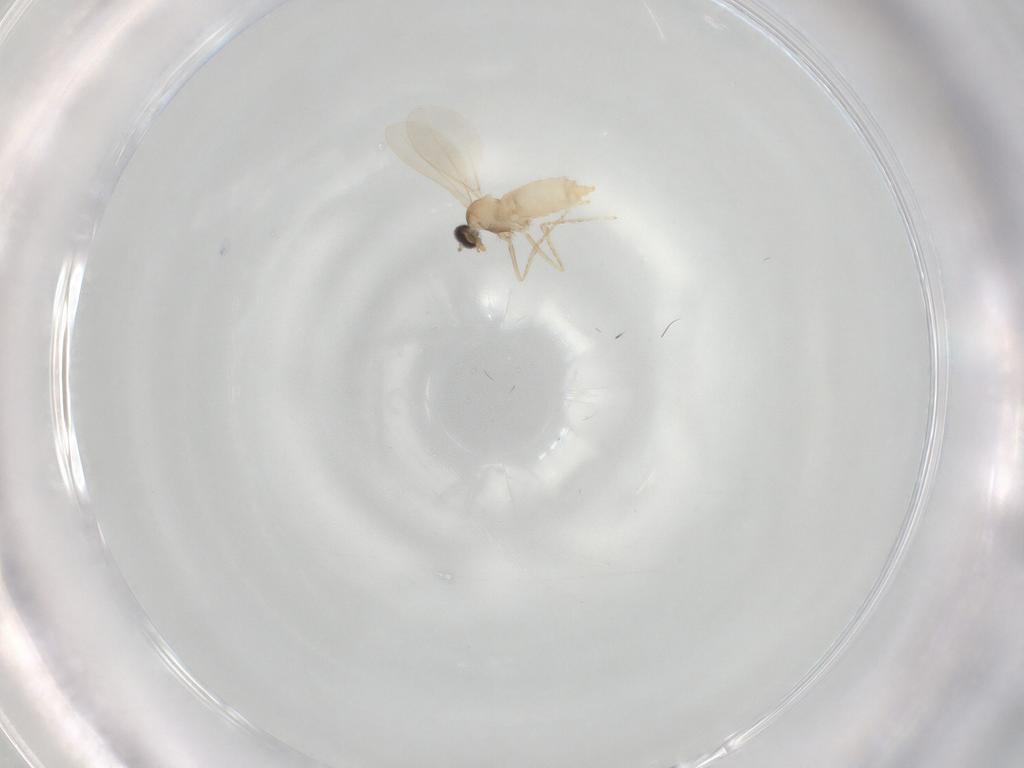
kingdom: Animalia
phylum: Arthropoda
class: Insecta
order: Diptera
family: Cecidomyiidae
